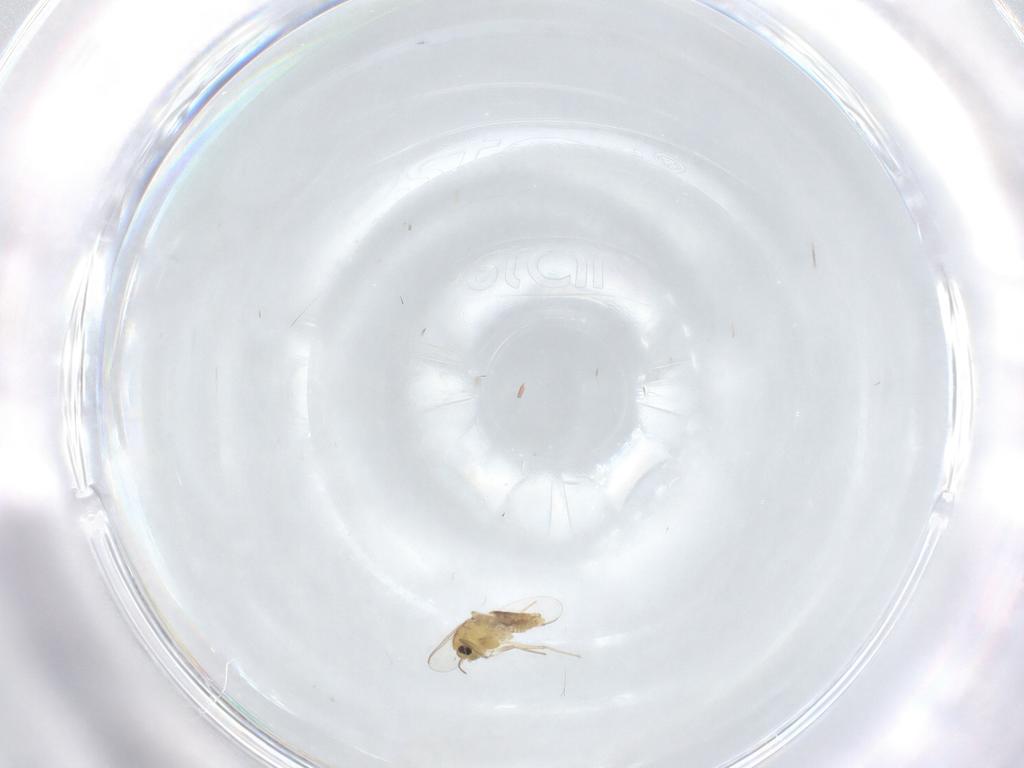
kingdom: Animalia
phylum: Arthropoda
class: Insecta
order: Diptera
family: Chironomidae
